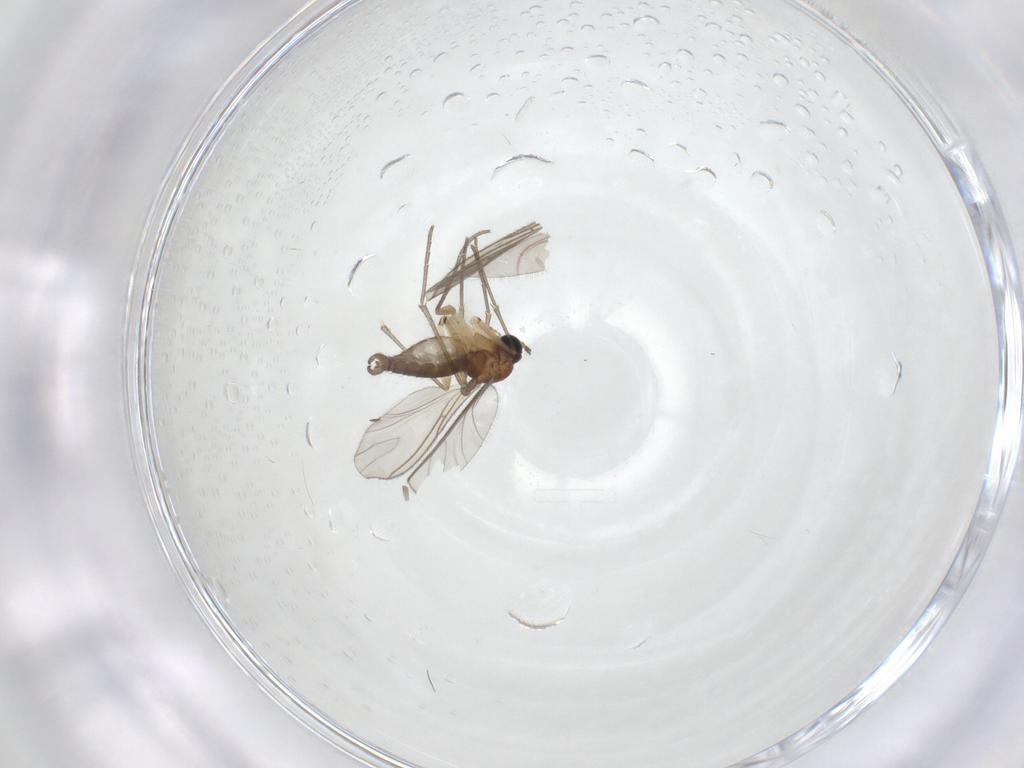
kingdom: Animalia
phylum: Arthropoda
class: Insecta
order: Diptera
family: Sciaridae
